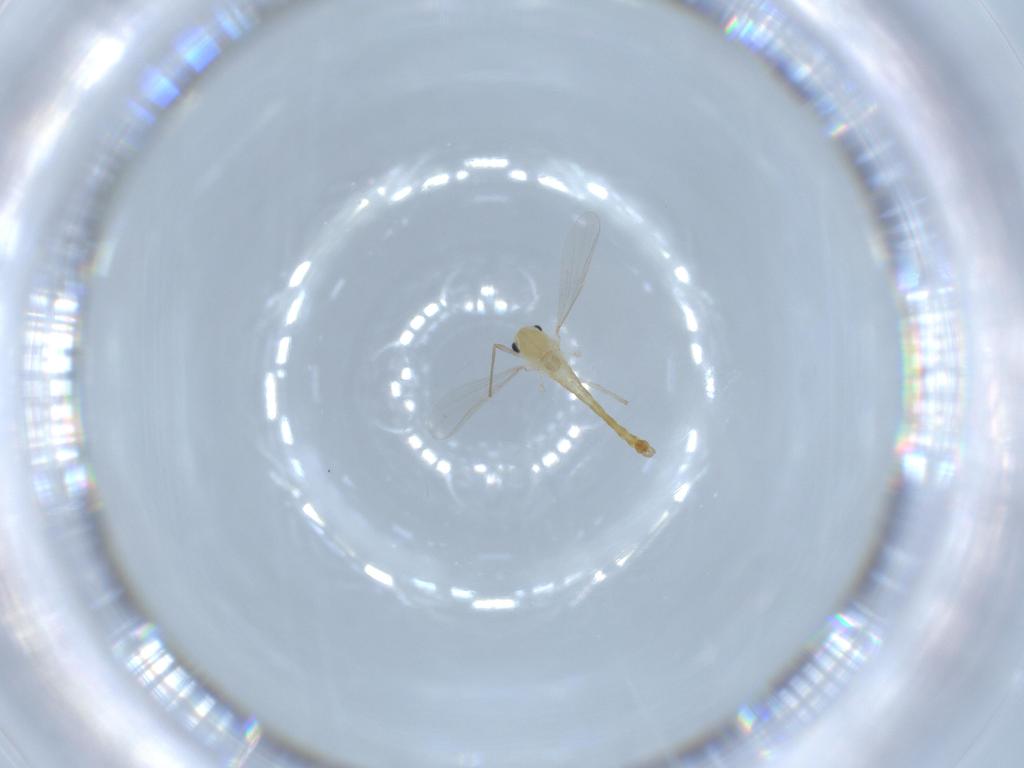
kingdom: Animalia
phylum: Arthropoda
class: Insecta
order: Diptera
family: Chironomidae
